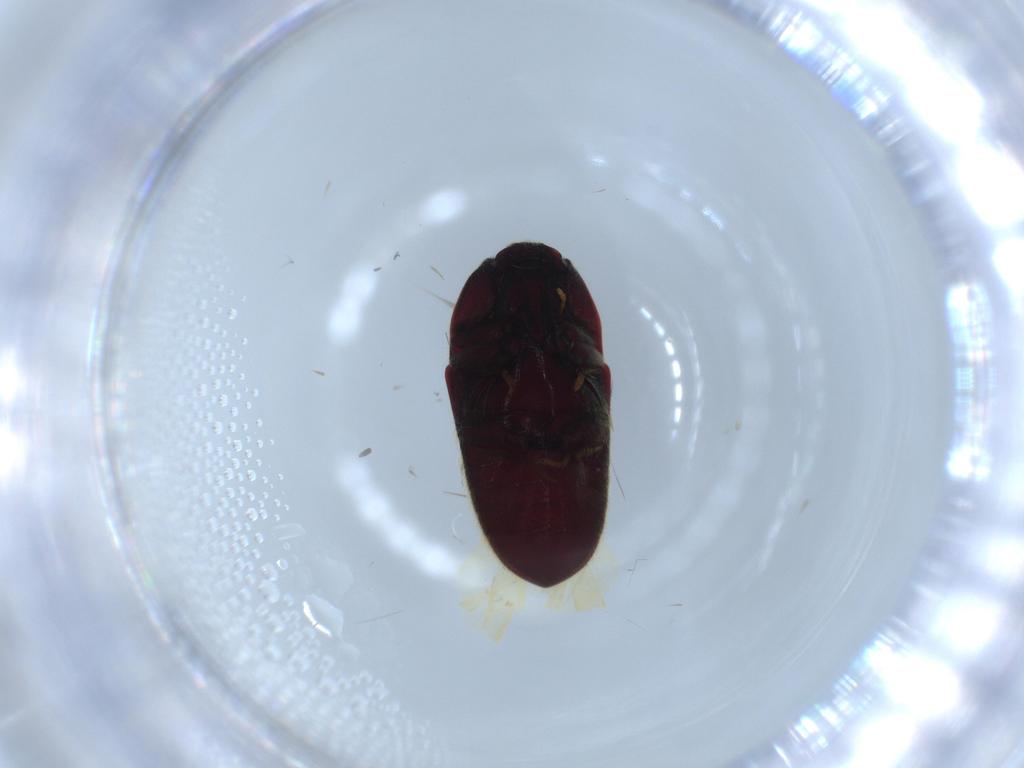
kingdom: Animalia
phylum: Arthropoda
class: Insecta
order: Coleoptera
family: Throscidae
